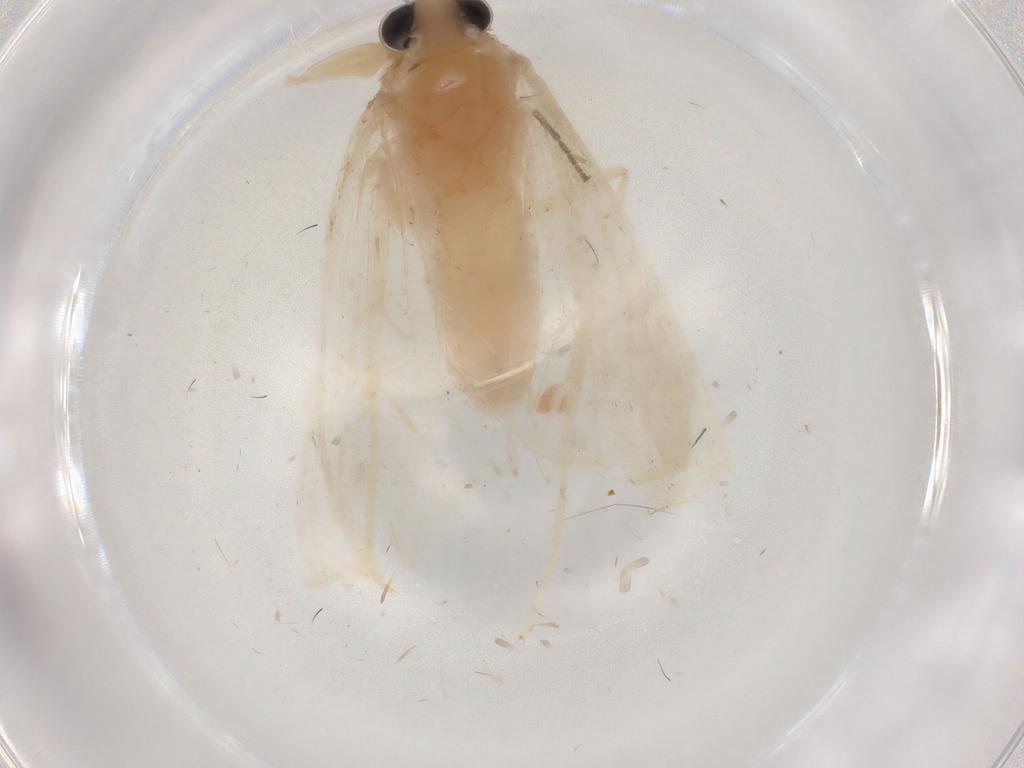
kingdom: Animalia
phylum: Arthropoda
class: Insecta
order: Lepidoptera
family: Crambidae
